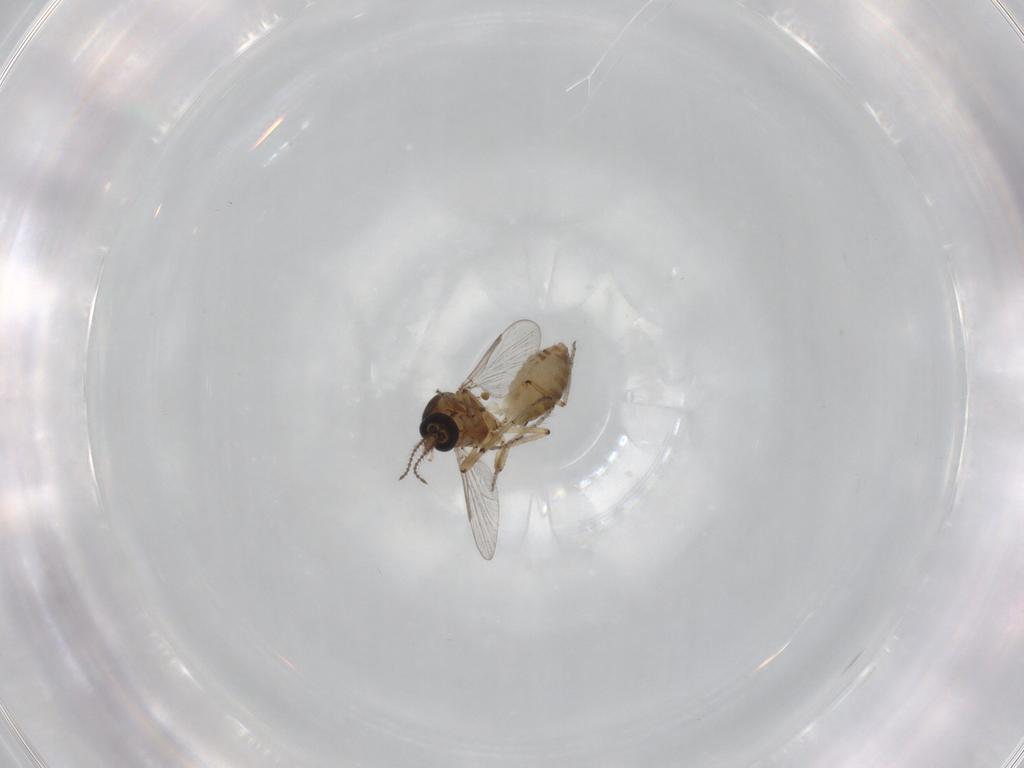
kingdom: Animalia
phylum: Arthropoda
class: Insecta
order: Diptera
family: Ceratopogonidae
